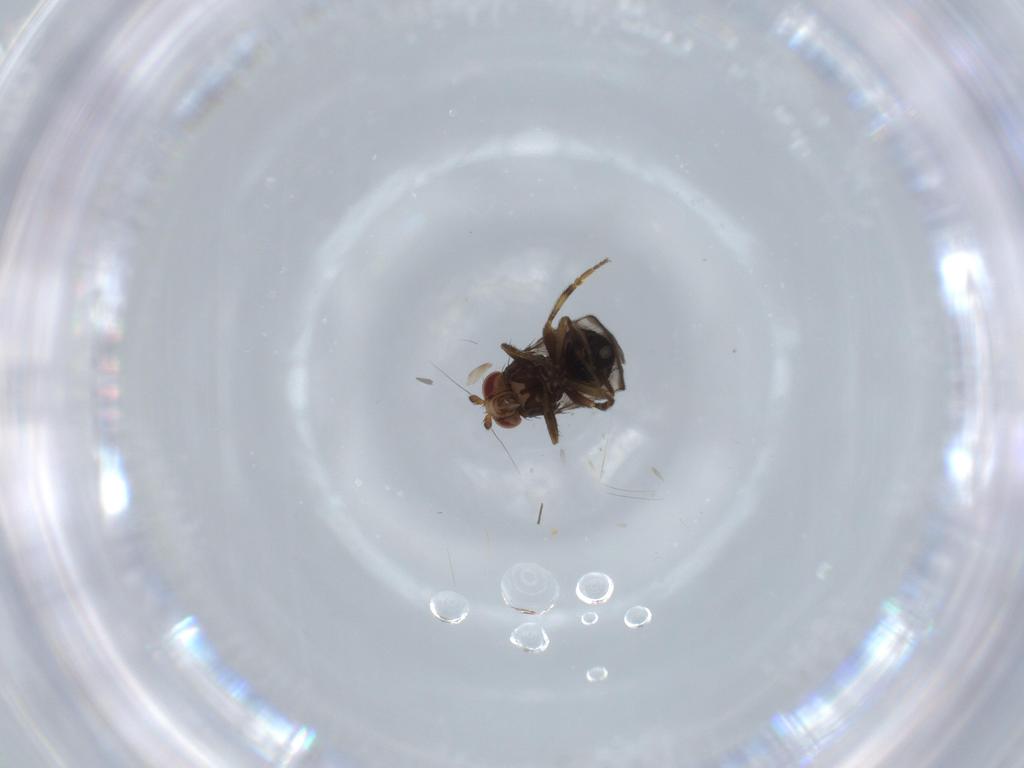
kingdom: Animalia
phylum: Arthropoda
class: Insecta
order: Diptera
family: Phoridae
